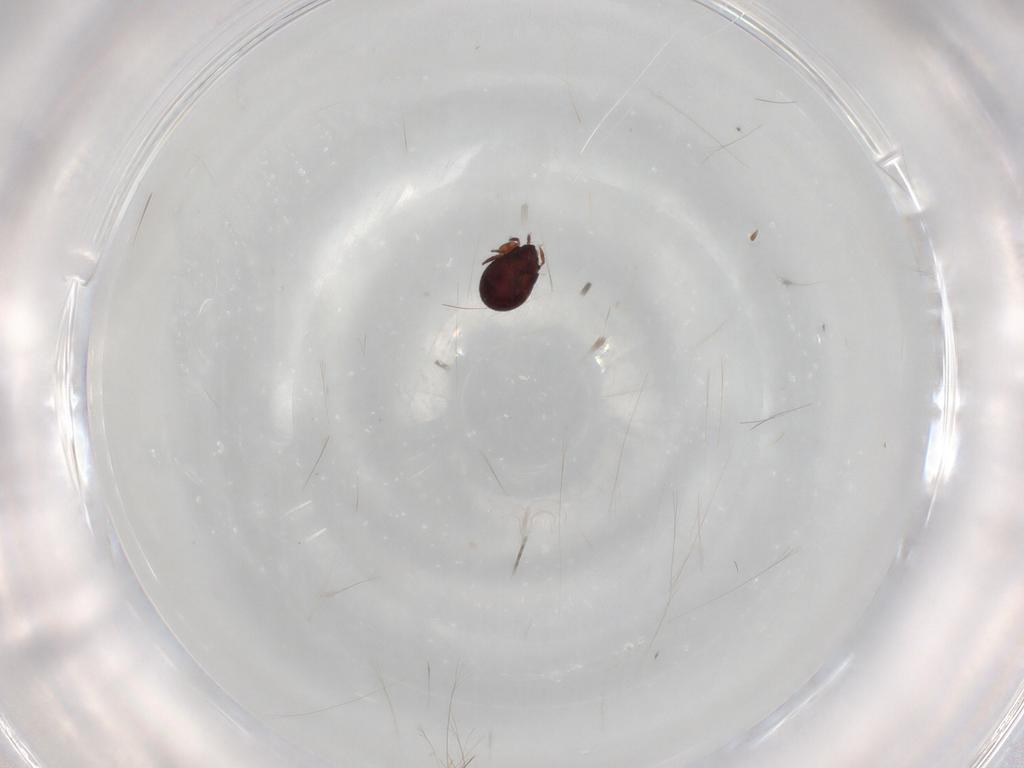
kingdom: Animalia
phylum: Arthropoda
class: Arachnida
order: Sarcoptiformes
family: Humerobatidae
